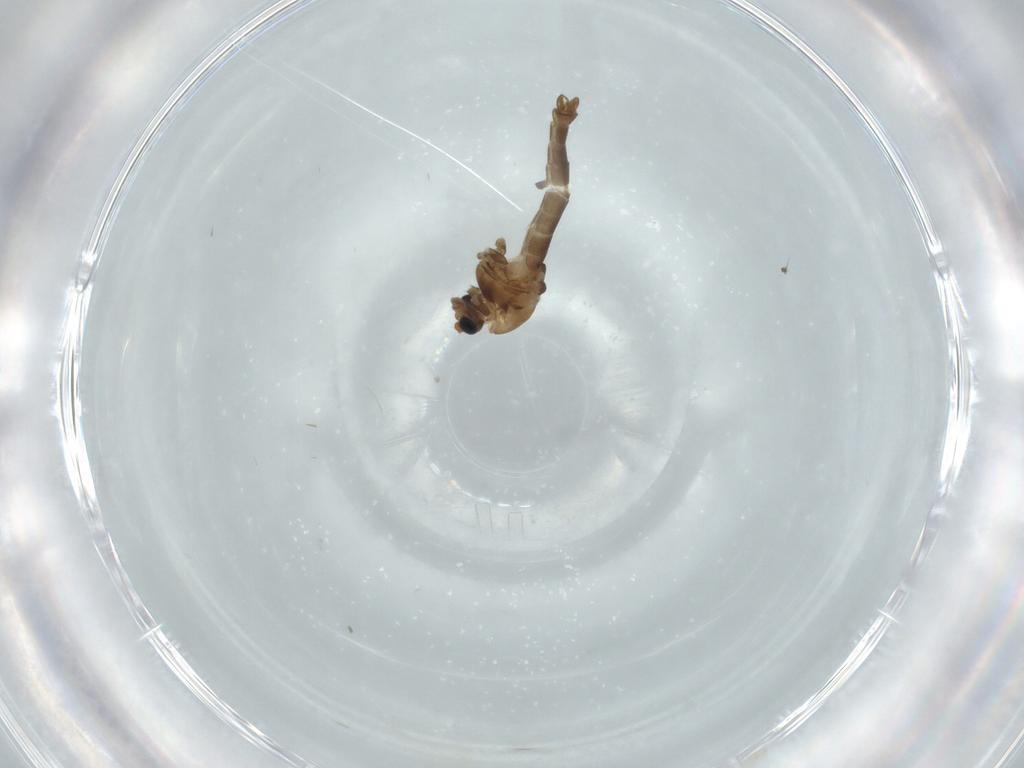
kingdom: Animalia
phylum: Arthropoda
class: Insecta
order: Diptera
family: Chironomidae
